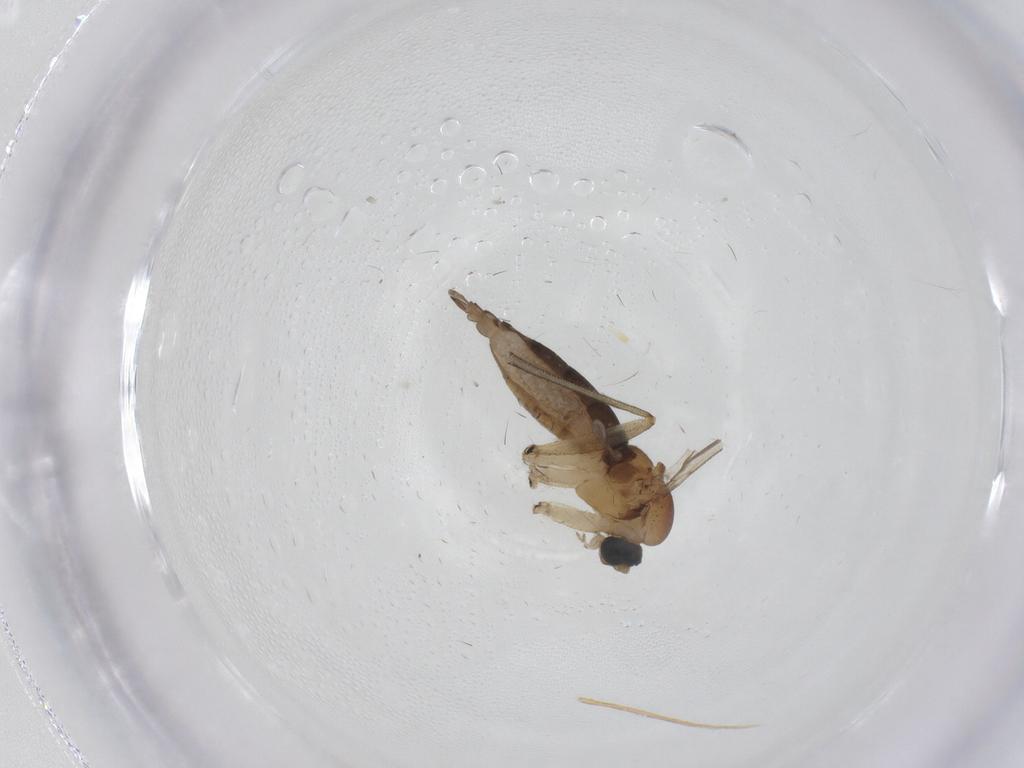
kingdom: Animalia
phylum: Arthropoda
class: Insecta
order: Diptera
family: Sciaridae
